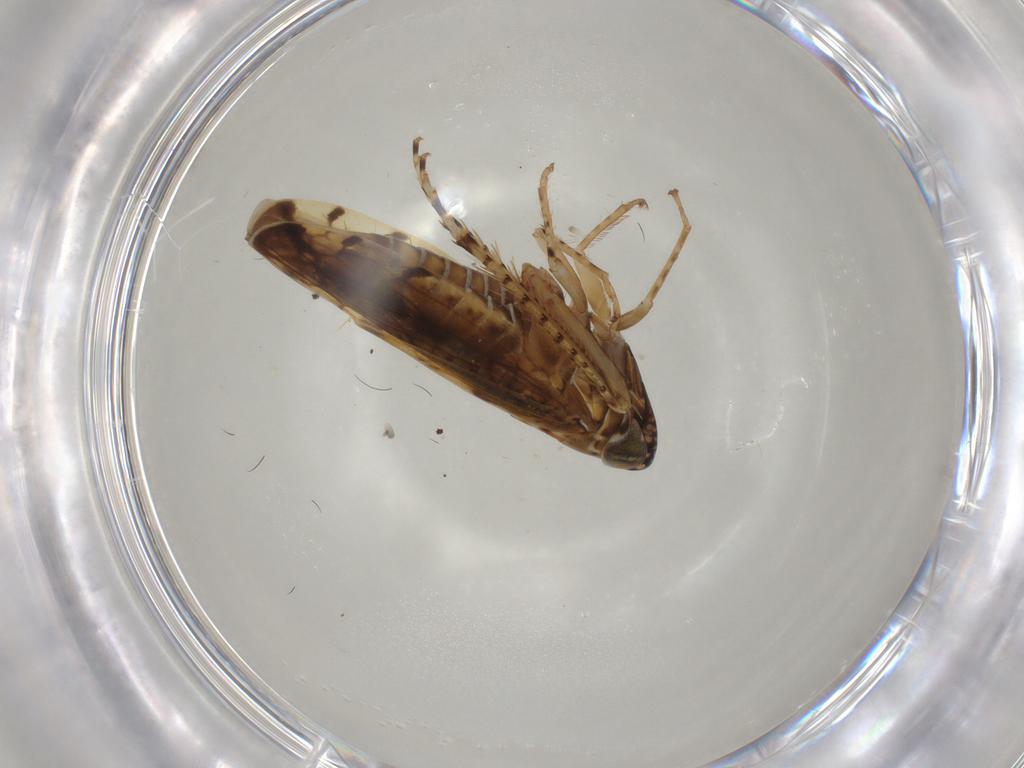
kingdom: Animalia
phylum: Arthropoda
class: Insecta
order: Hemiptera
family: Cicadellidae
